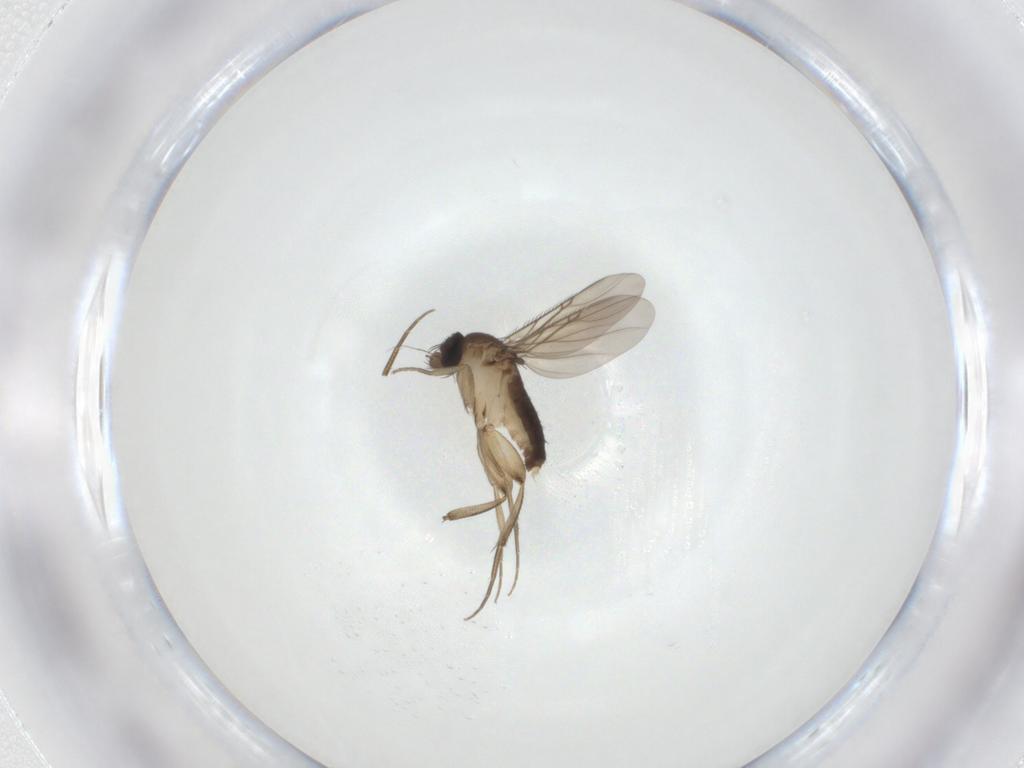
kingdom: Animalia
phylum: Arthropoda
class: Insecta
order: Diptera
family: Phoridae
